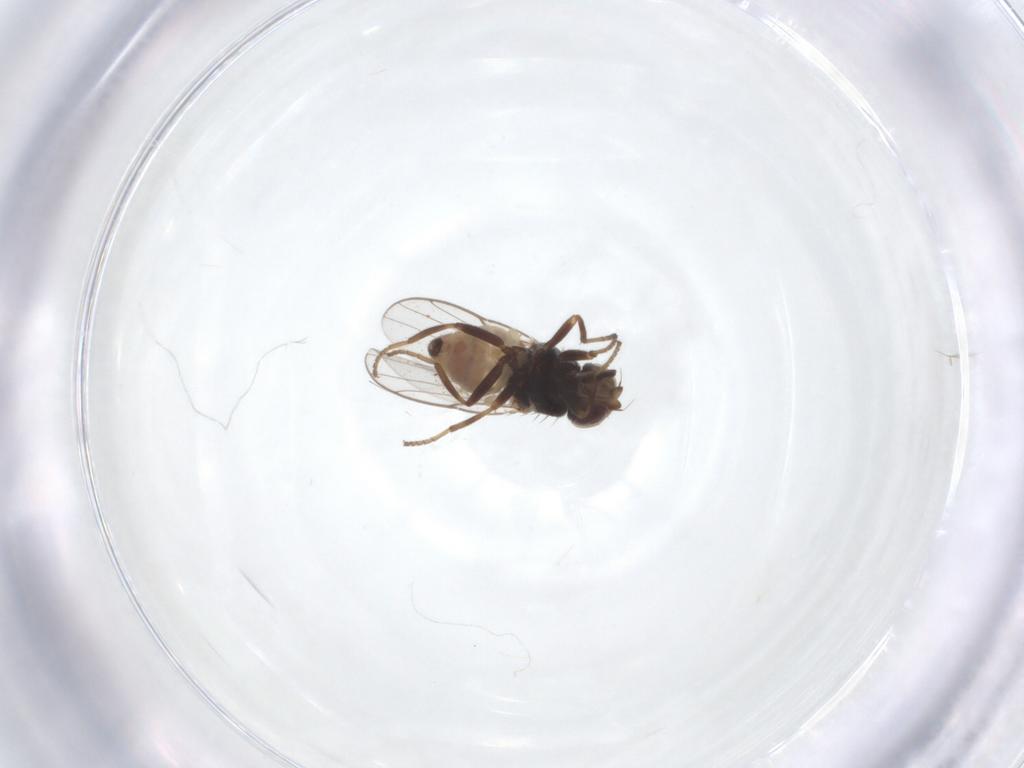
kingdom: Animalia
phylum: Arthropoda
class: Insecta
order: Diptera
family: Chloropidae
